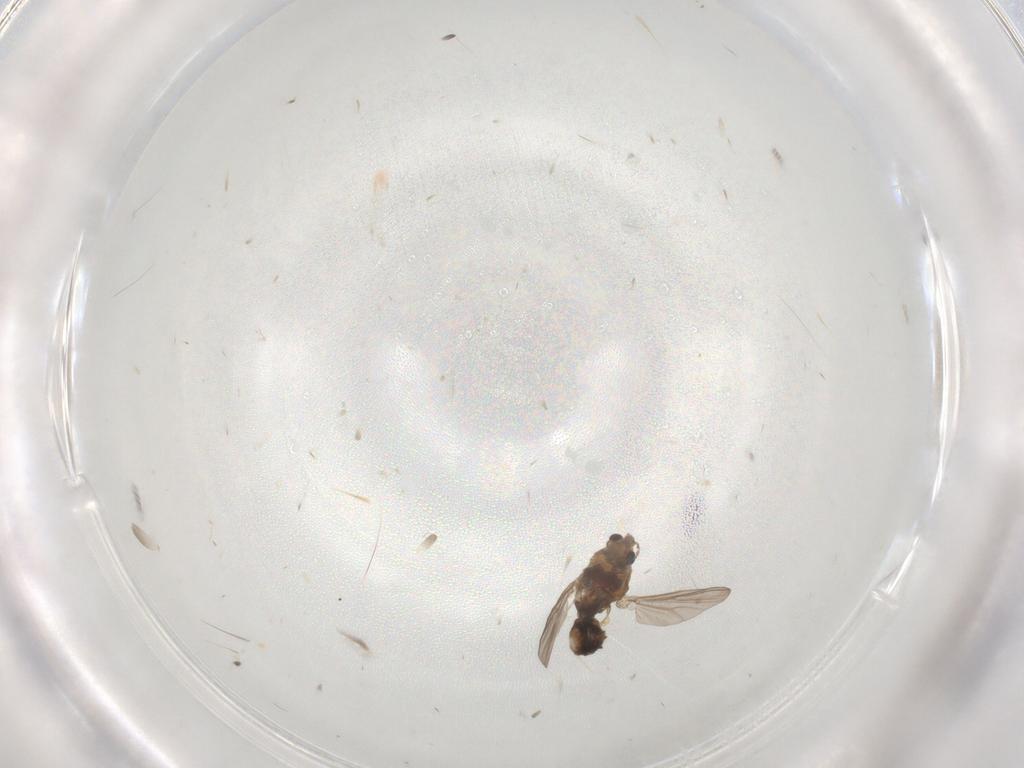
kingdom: Animalia
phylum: Arthropoda
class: Insecta
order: Diptera
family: Chironomidae
